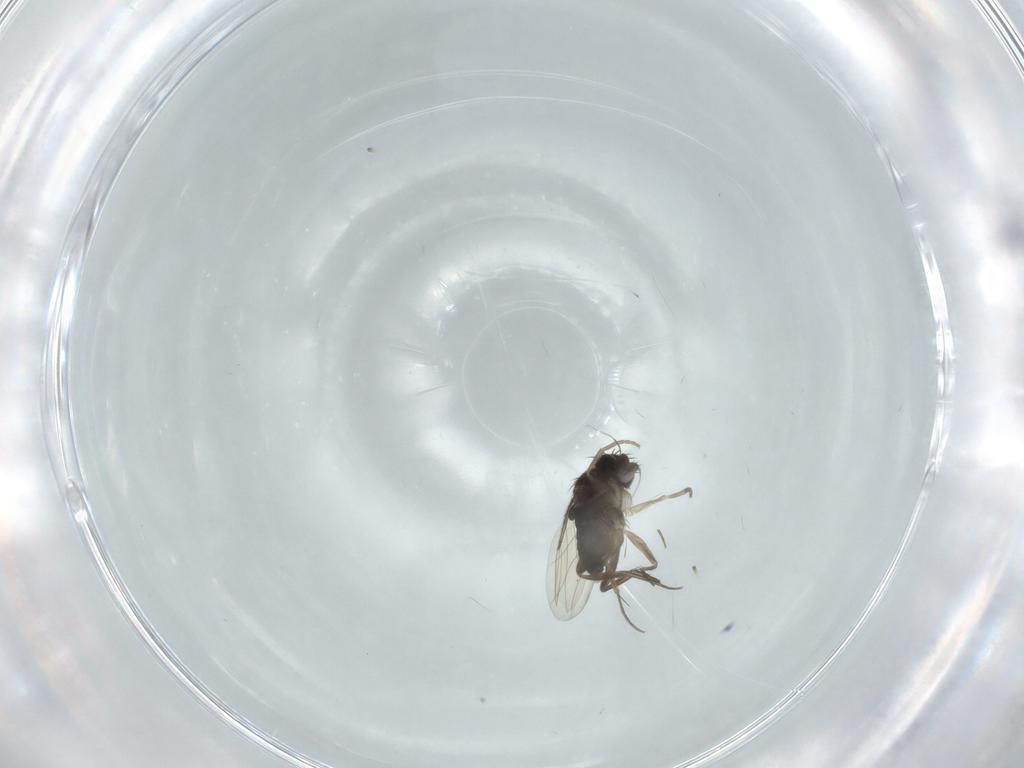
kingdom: Animalia
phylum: Arthropoda
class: Insecta
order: Diptera
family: Phoridae
